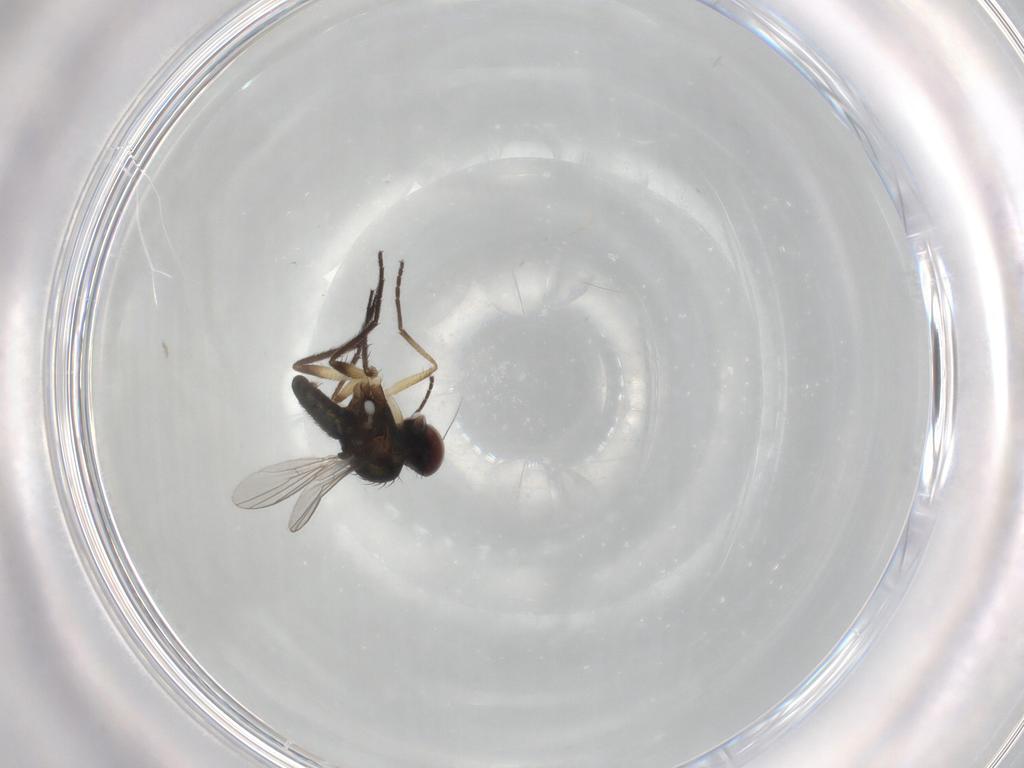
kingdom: Animalia
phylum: Arthropoda
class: Insecta
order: Diptera
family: Dolichopodidae
